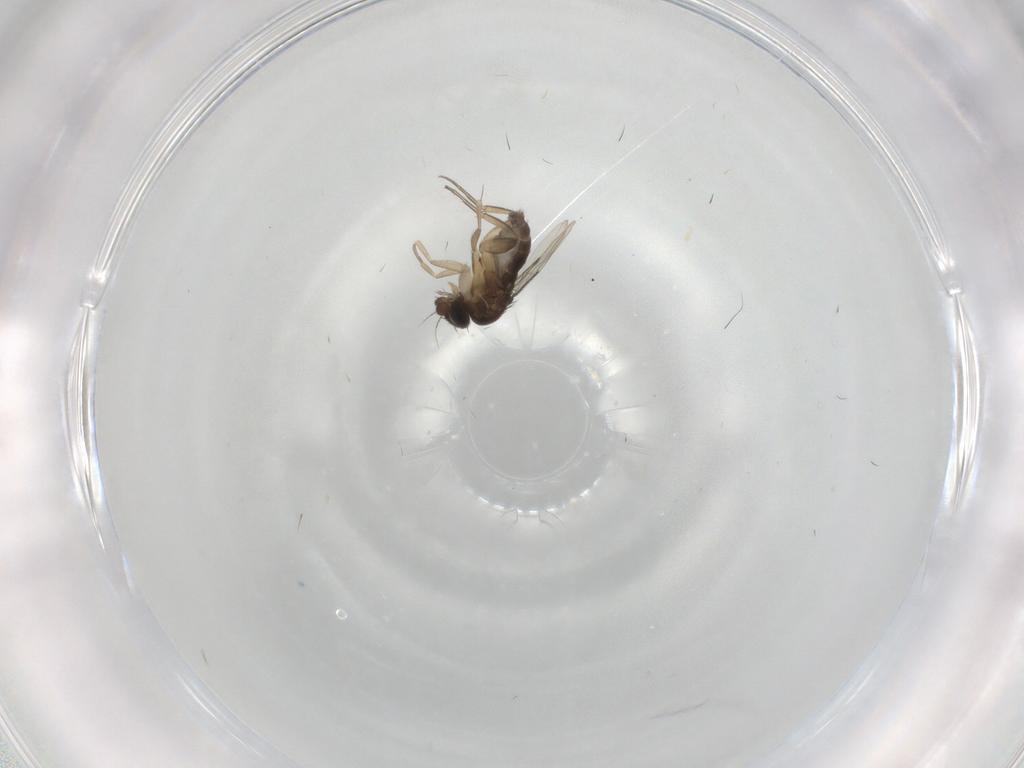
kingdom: Animalia
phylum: Arthropoda
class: Insecta
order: Diptera
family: Phoridae
